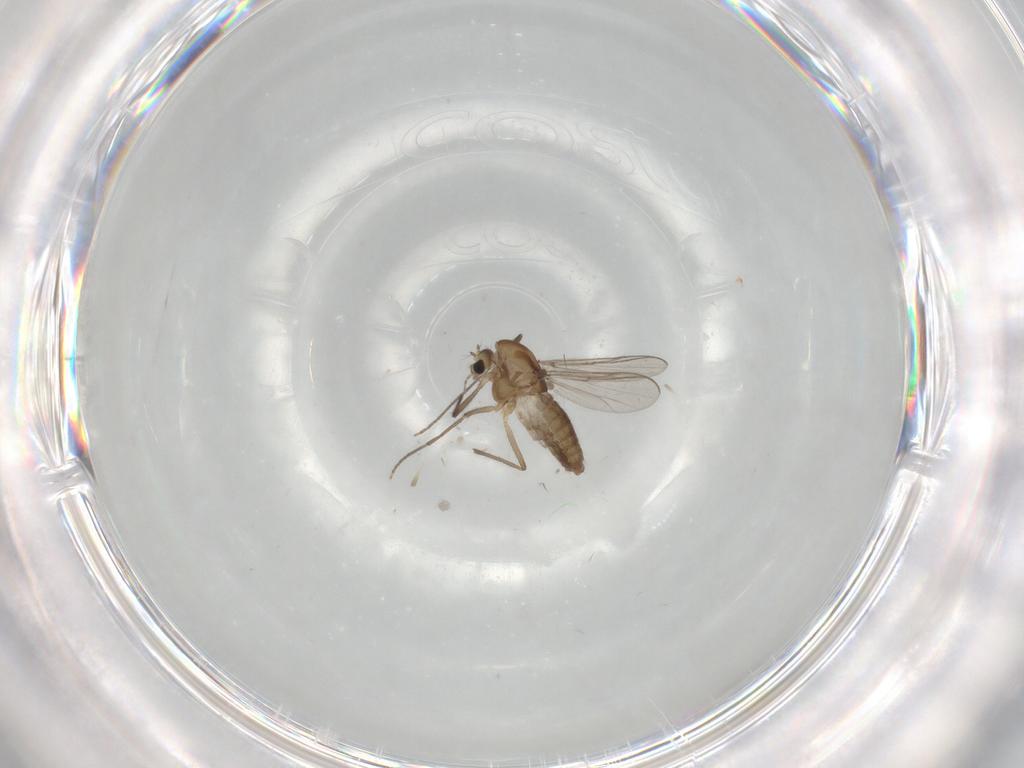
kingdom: Animalia
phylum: Arthropoda
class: Insecta
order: Diptera
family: Chironomidae
